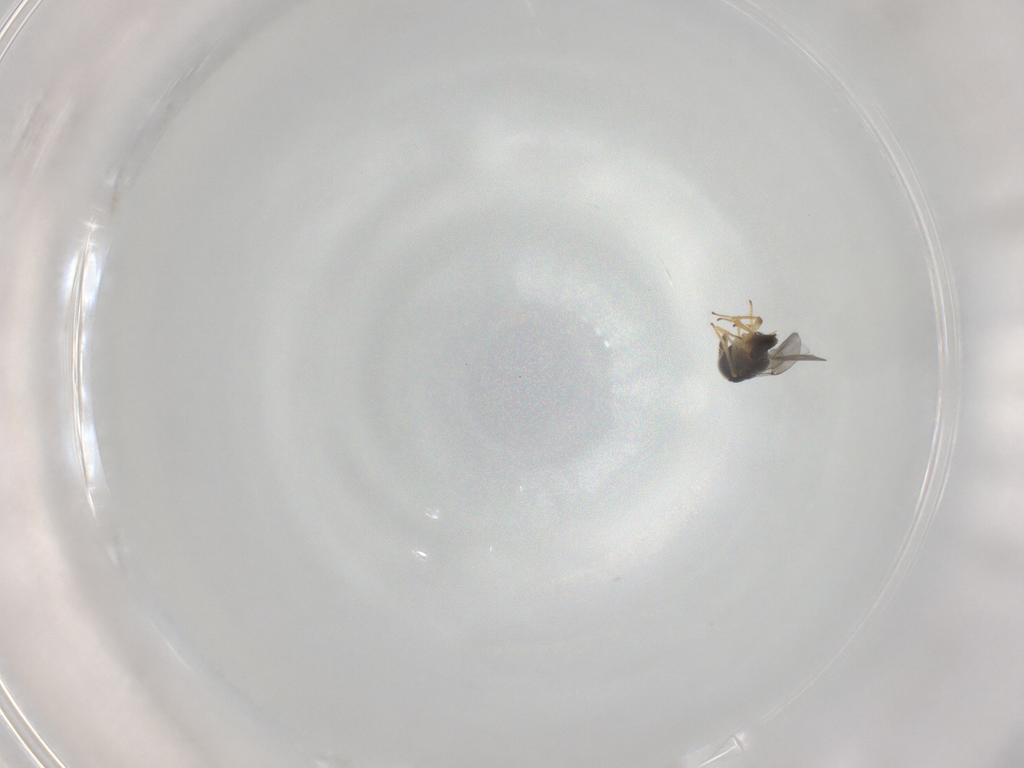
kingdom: Animalia
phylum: Arthropoda
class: Insecta
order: Hymenoptera
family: Encyrtidae
